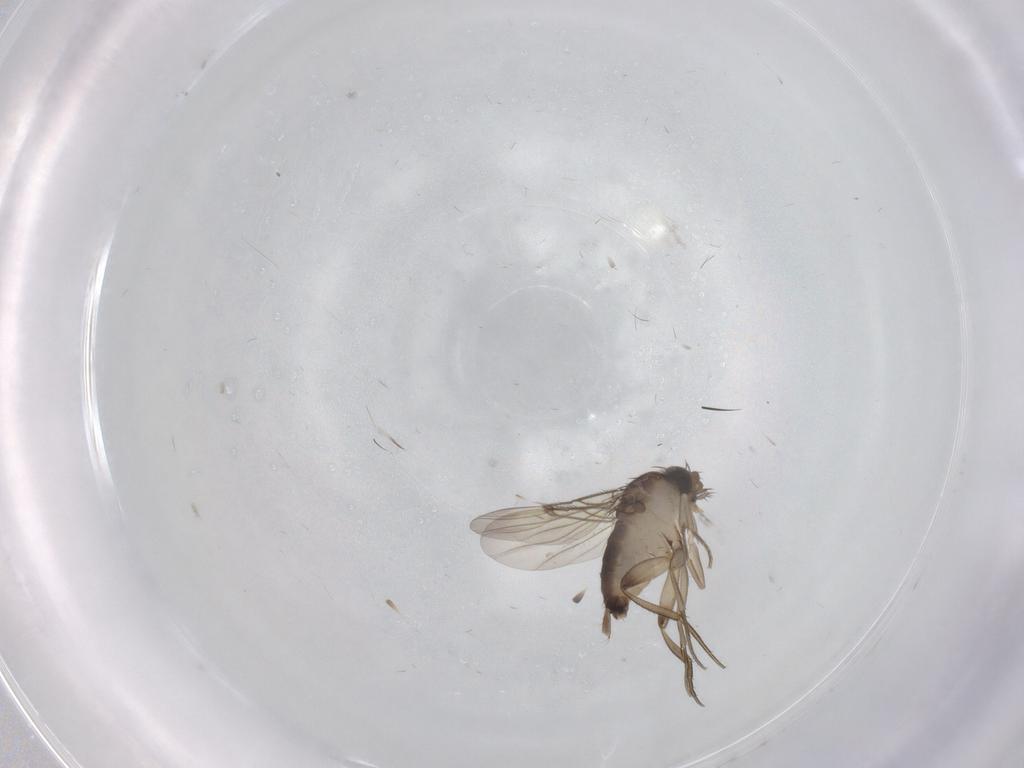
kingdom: Animalia
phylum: Arthropoda
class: Insecta
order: Diptera
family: Phoridae
